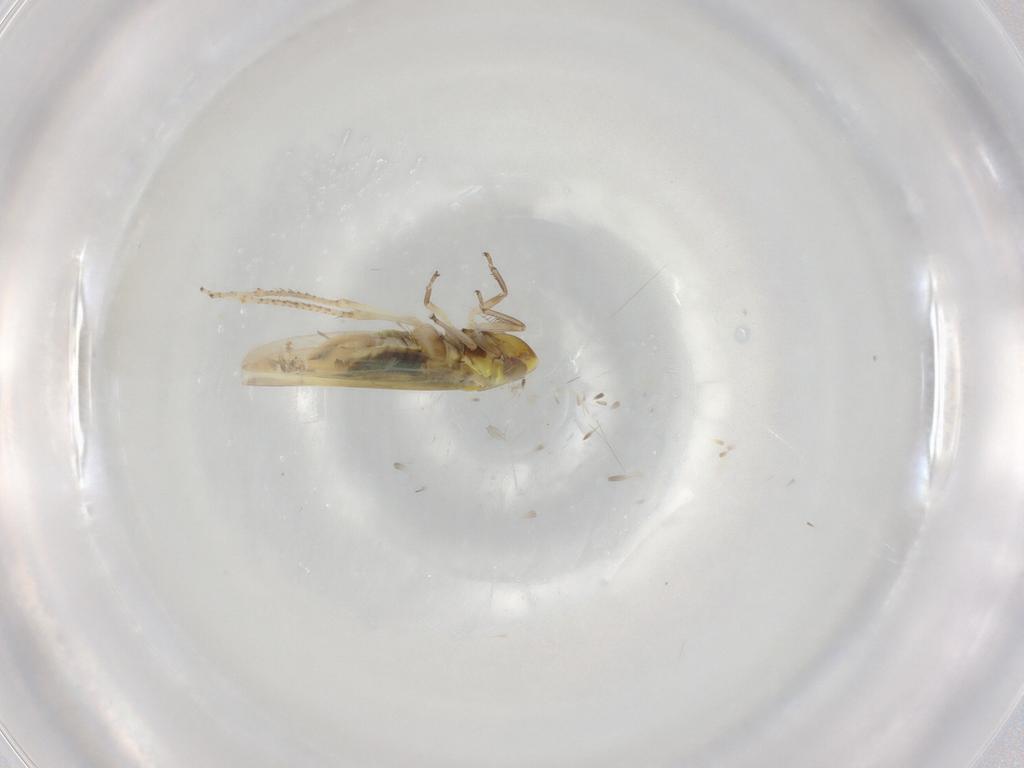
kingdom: Animalia
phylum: Arthropoda
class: Insecta
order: Hemiptera
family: Cicadellidae
